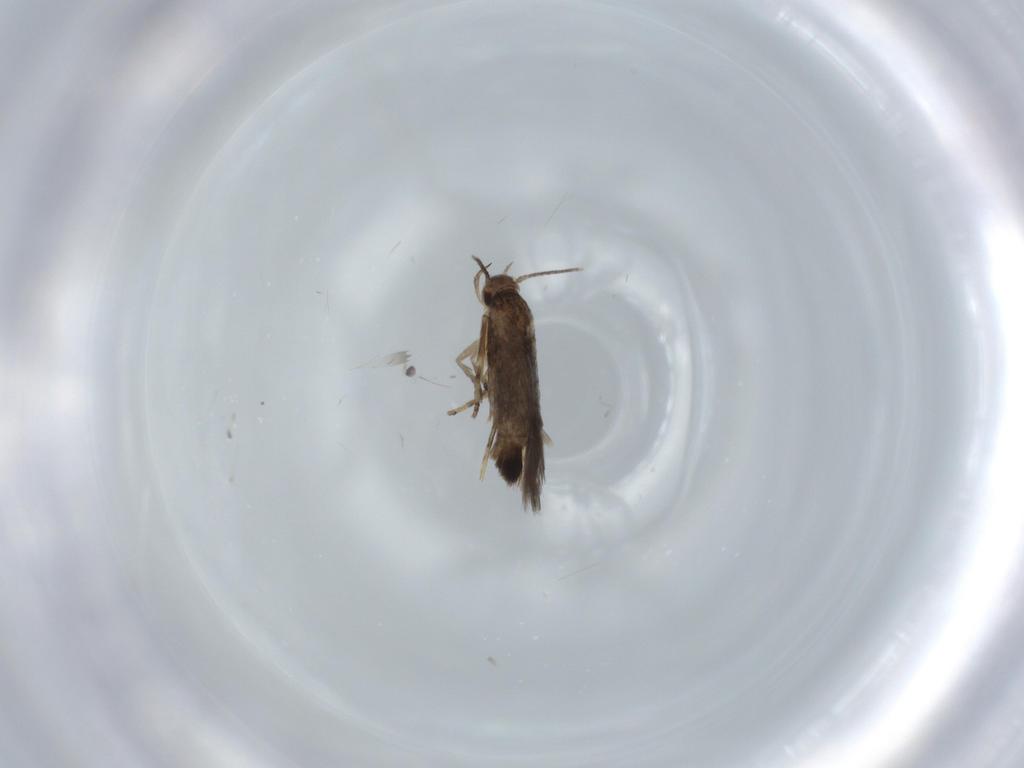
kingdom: Animalia
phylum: Arthropoda
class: Insecta
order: Lepidoptera
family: Cosmopterigidae
